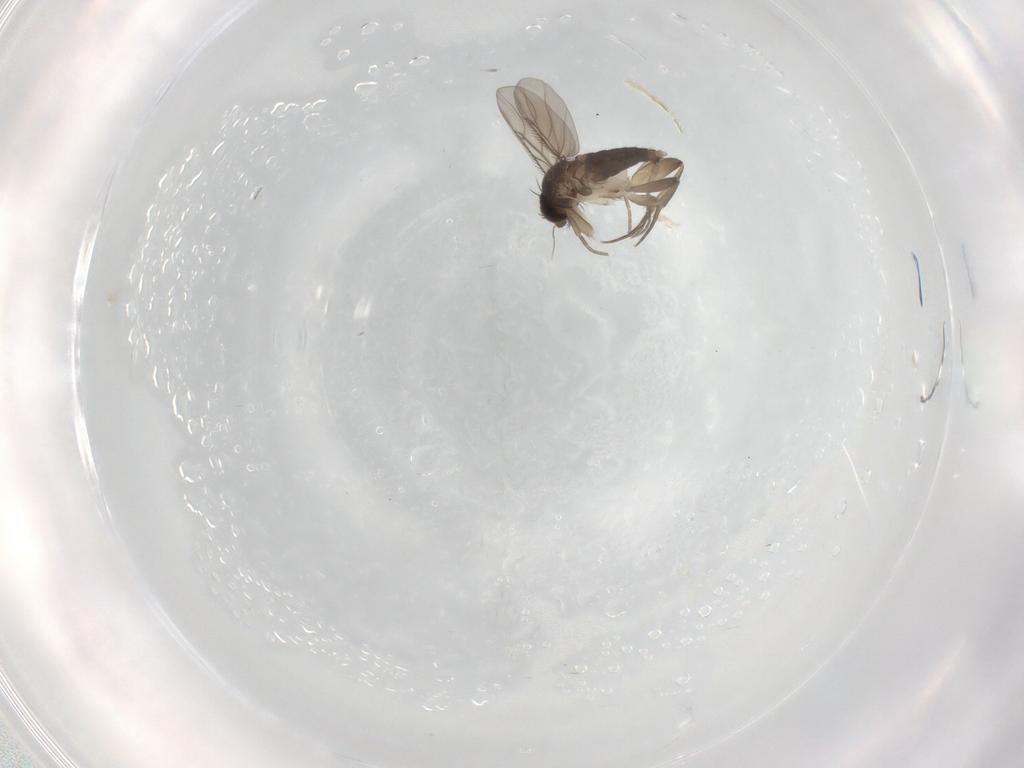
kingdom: Animalia
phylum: Arthropoda
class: Insecta
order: Diptera
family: Phoridae
